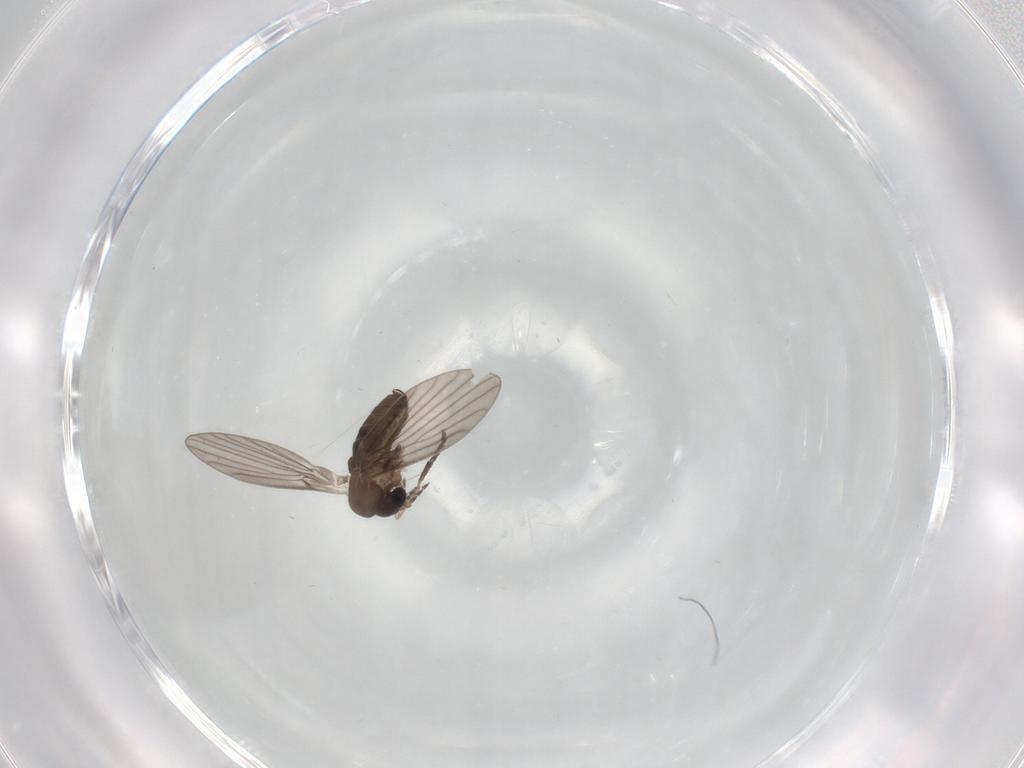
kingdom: Animalia
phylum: Arthropoda
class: Insecta
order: Diptera
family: Psychodidae
